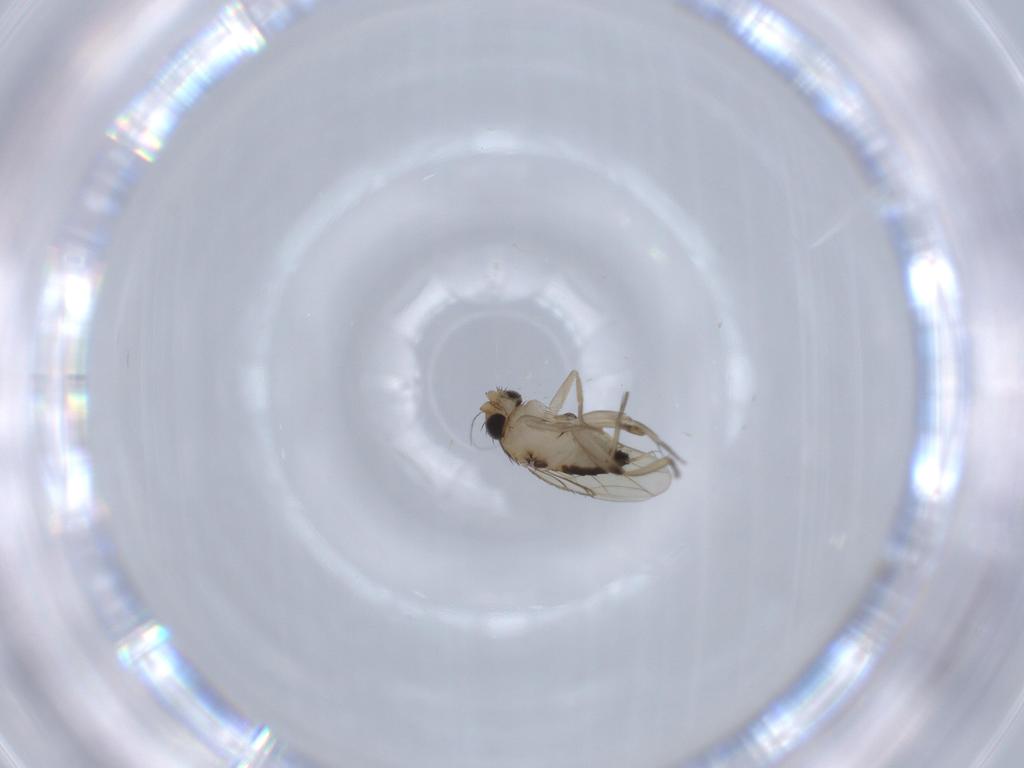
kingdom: Animalia
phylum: Arthropoda
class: Insecta
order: Diptera
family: Phoridae
